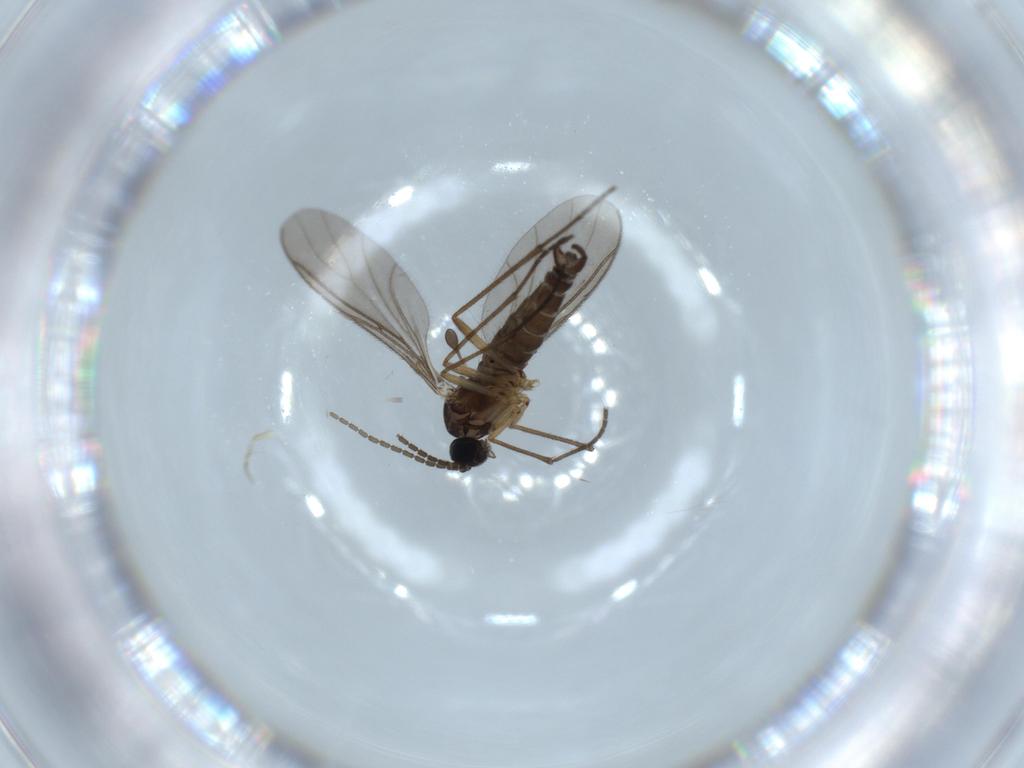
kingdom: Animalia
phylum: Arthropoda
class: Insecta
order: Diptera
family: Sciaridae
